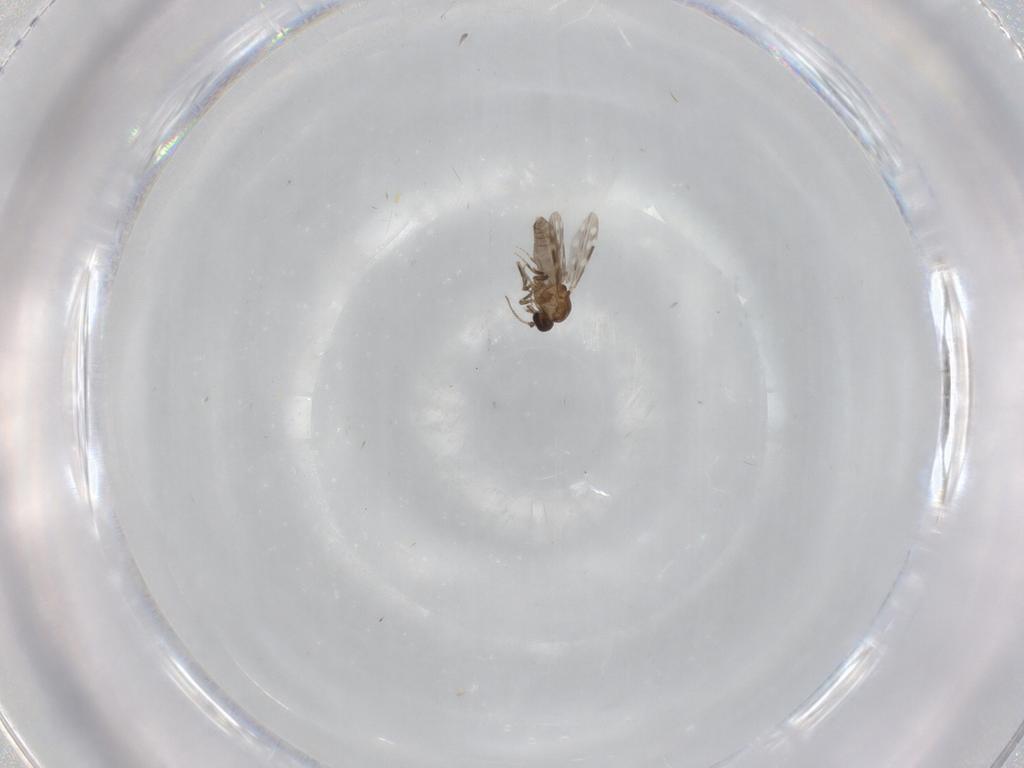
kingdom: Animalia
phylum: Arthropoda
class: Insecta
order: Diptera
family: Ceratopogonidae
